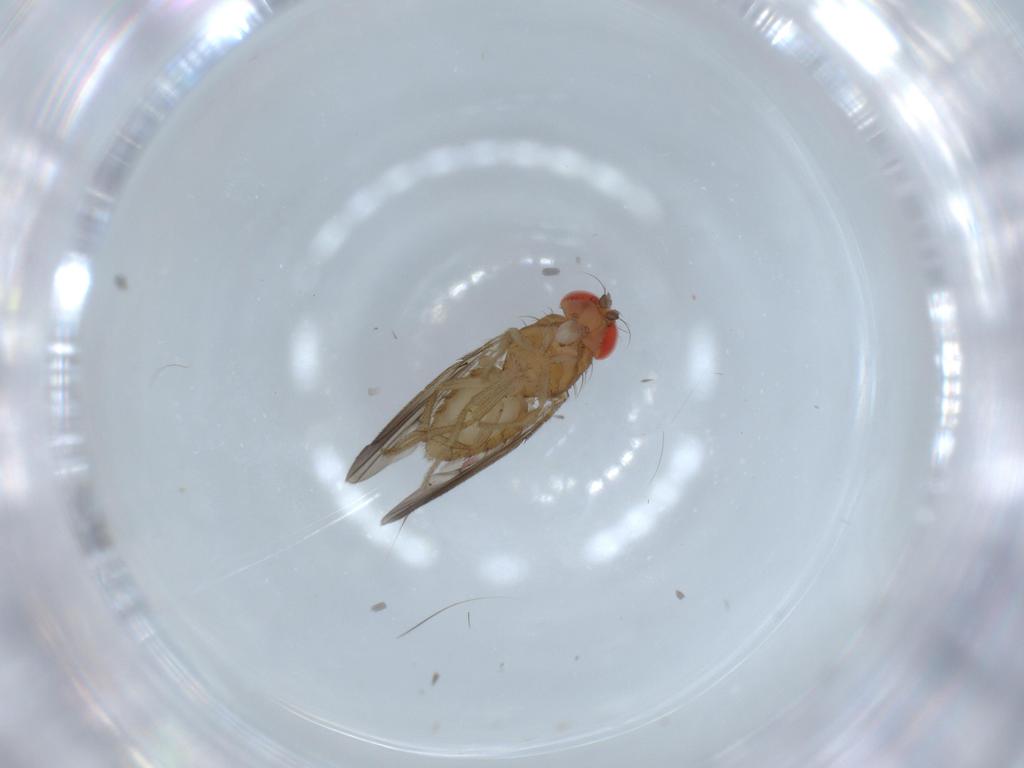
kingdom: Animalia
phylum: Arthropoda
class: Insecta
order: Diptera
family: Drosophilidae
